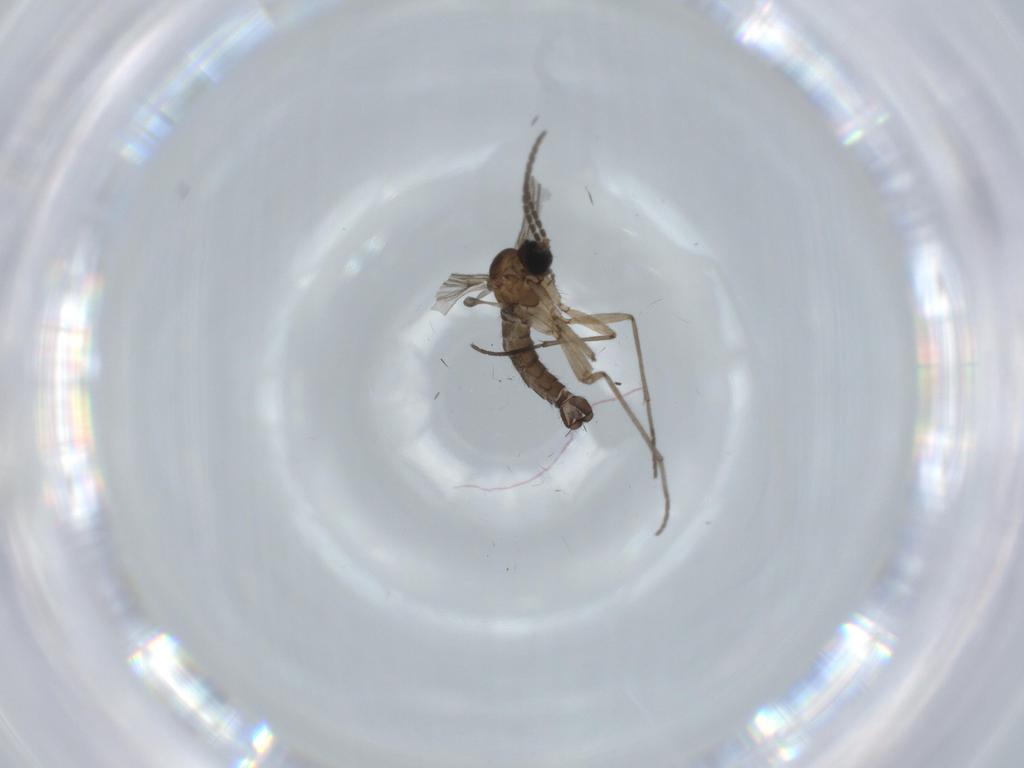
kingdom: Animalia
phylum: Arthropoda
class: Insecta
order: Diptera
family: Sciaridae
